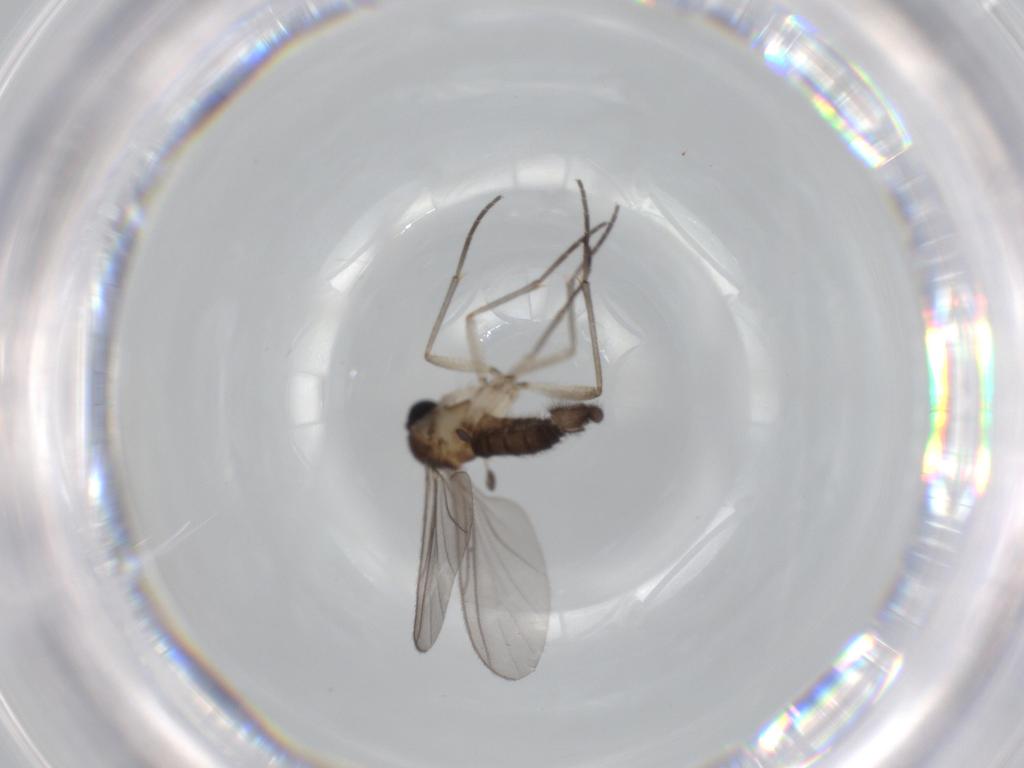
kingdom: Animalia
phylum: Arthropoda
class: Insecta
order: Diptera
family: Sciaridae
